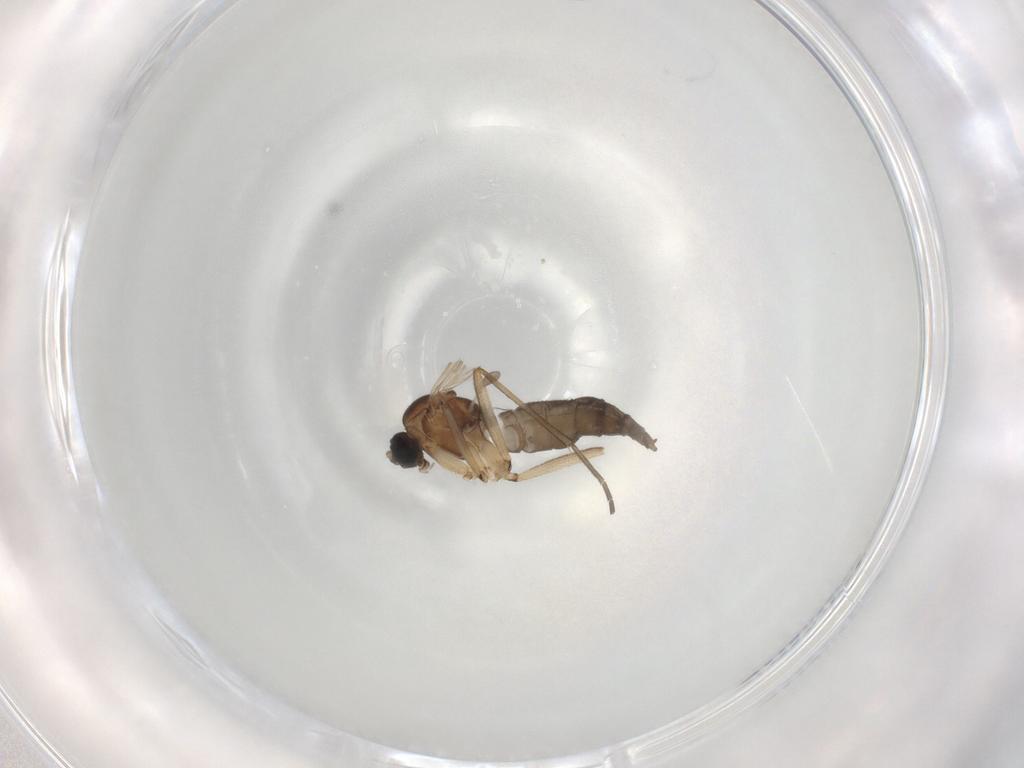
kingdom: Animalia
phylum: Arthropoda
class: Insecta
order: Diptera
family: Sciaridae
